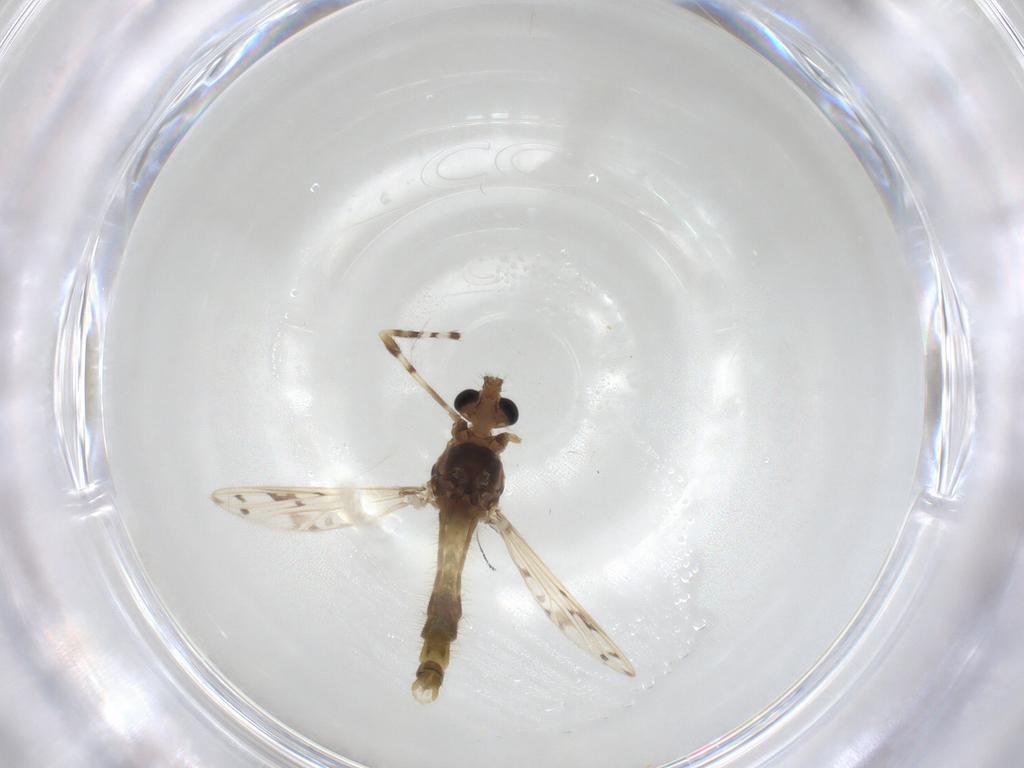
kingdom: Animalia
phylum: Arthropoda
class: Insecta
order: Diptera
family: Chironomidae
